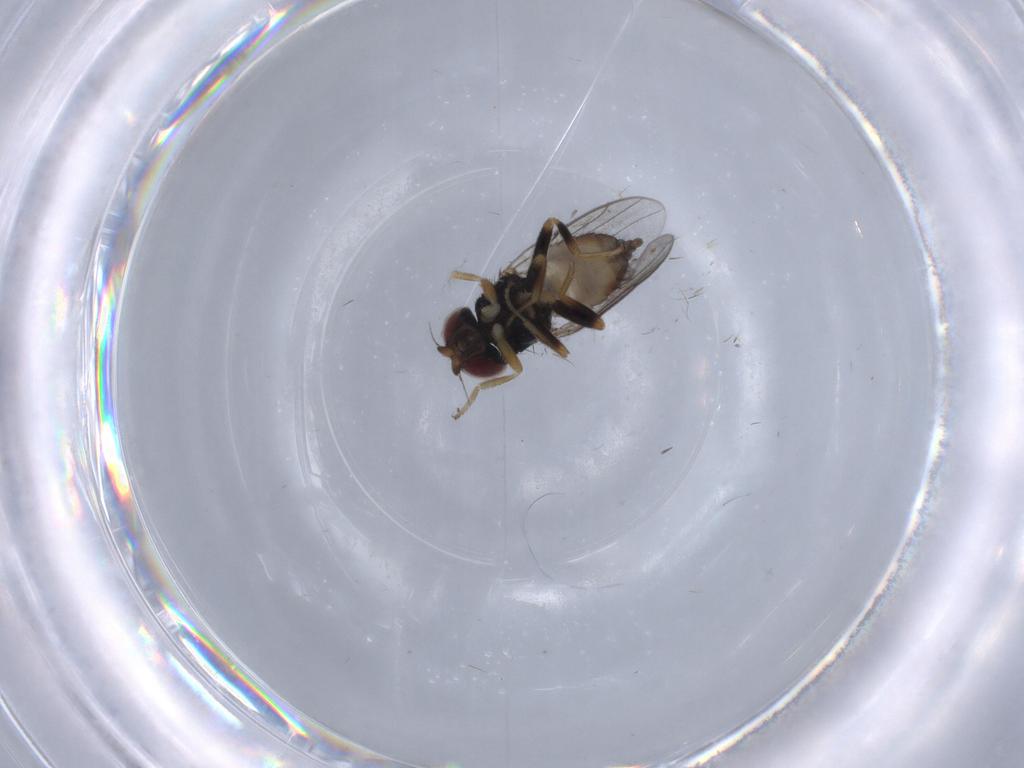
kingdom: Animalia
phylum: Arthropoda
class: Insecta
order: Diptera
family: Chloropidae
